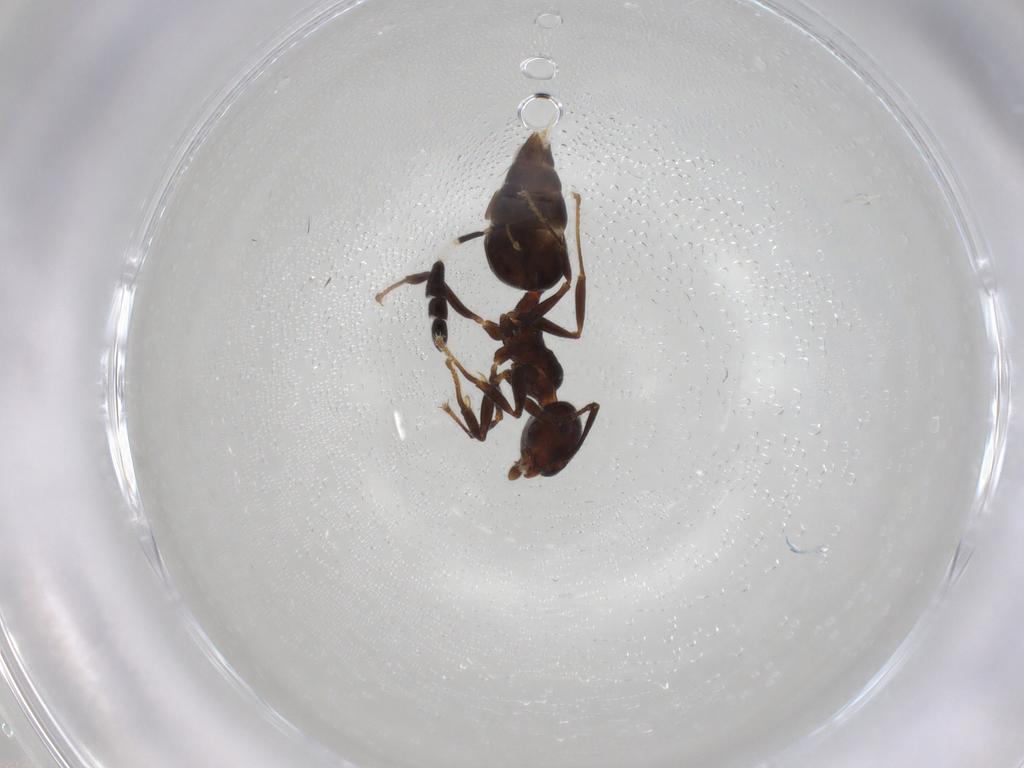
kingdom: Animalia
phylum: Arthropoda
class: Insecta
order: Hymenoptera
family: Formicidae
